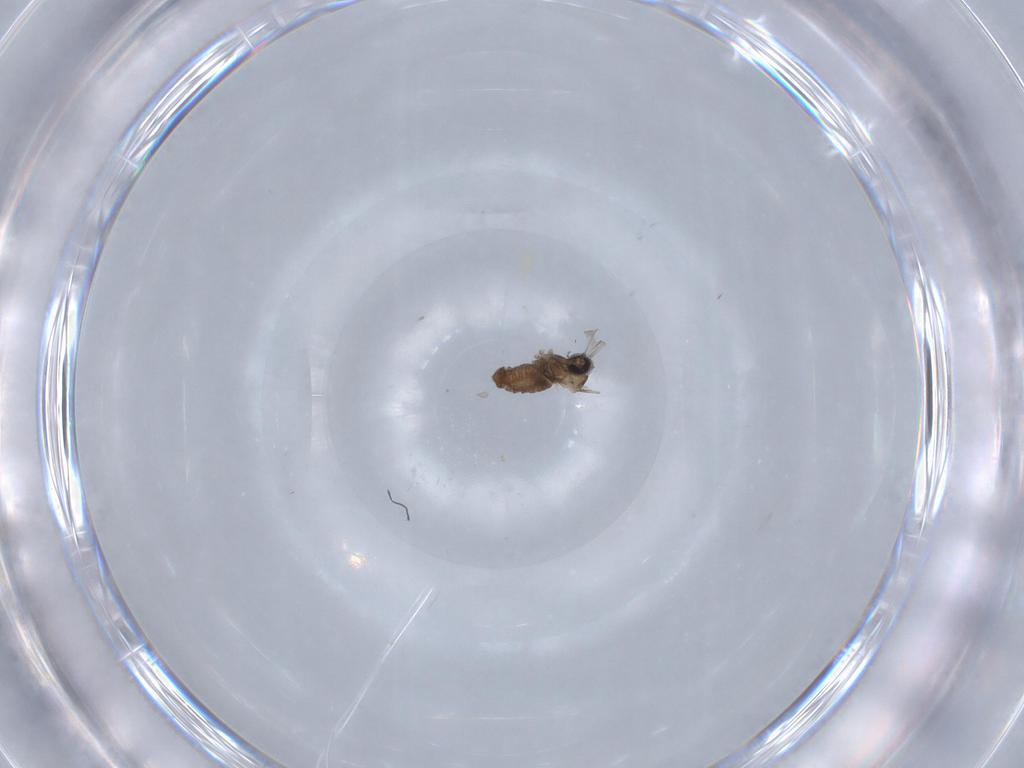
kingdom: Animalia
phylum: Arthropoda
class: Insecta
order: Diptera
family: Cecidomyiidae
